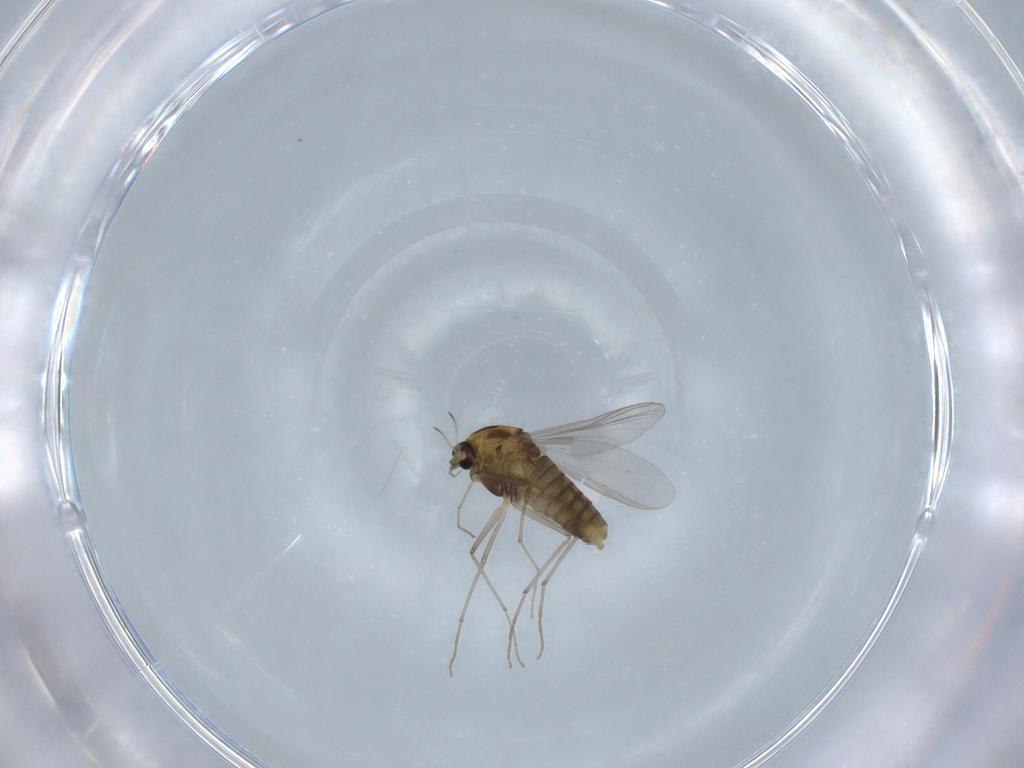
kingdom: Animalia
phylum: Arthropoda
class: Insecta
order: Diptera
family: Chironomidae
